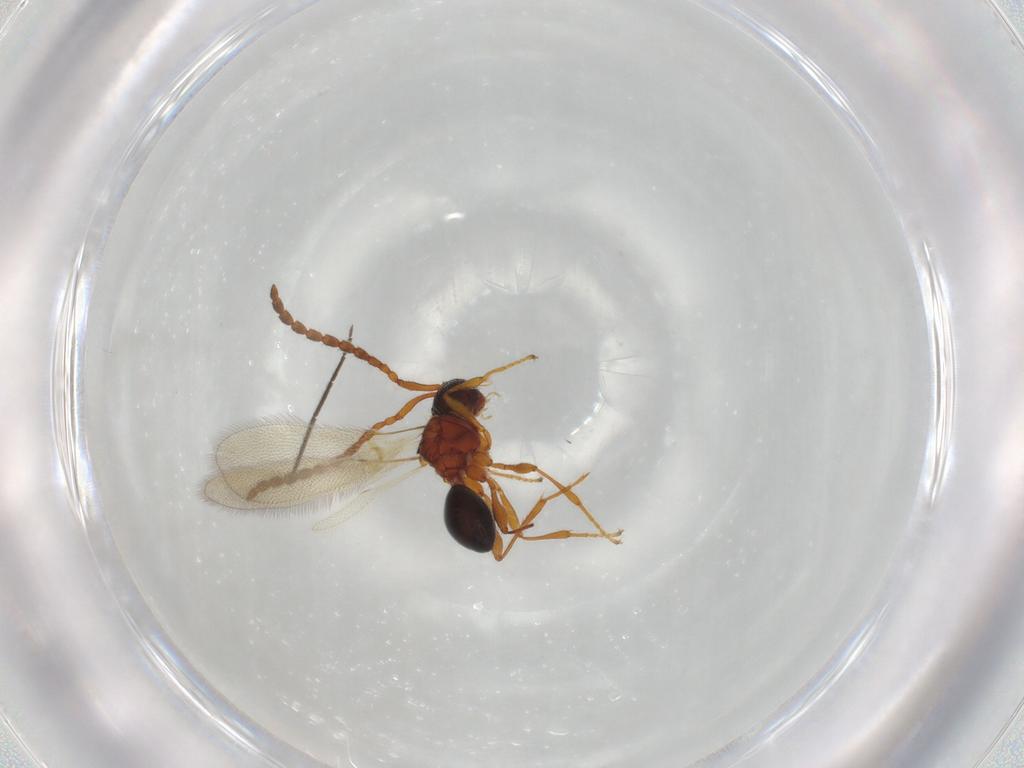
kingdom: Animalia
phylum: Arthropoda
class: Insecta
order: Hymenoptera
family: Diapriidae
